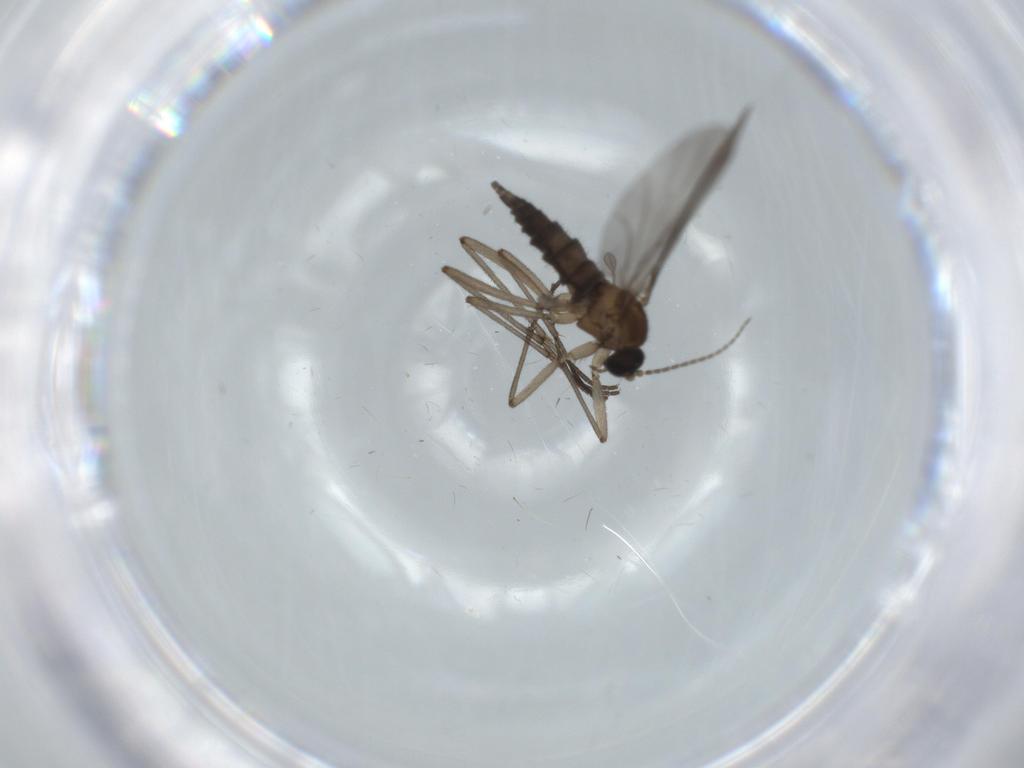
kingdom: Animalia
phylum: Arthropoda
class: Insecta
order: Diptera
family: Sciaridae
